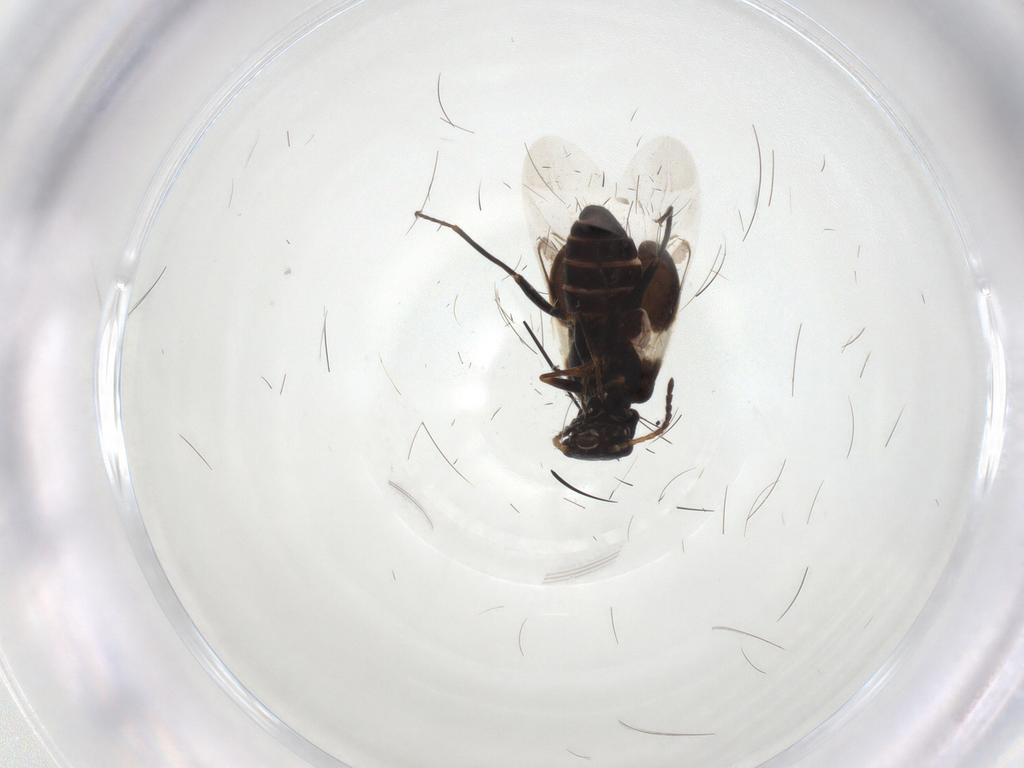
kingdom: Animalia
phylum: Arthropoda
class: Insecta
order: Coleoptera
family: Melyridae
